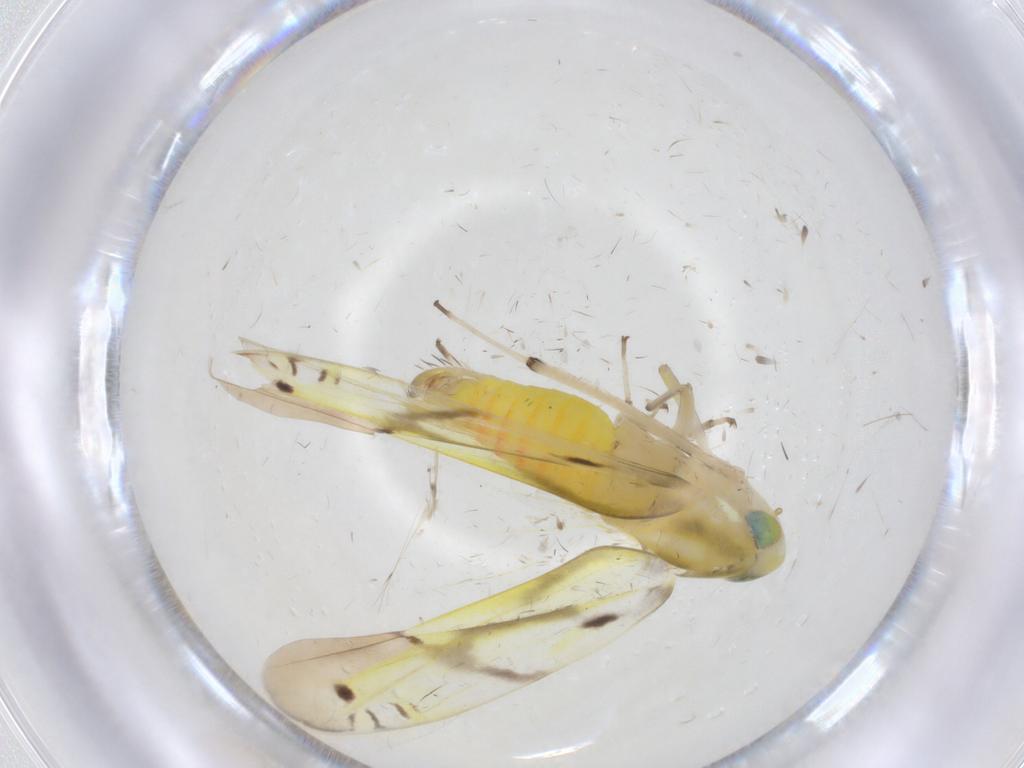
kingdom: Animalia
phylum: Arthropoda
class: Insecta
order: Hemiptera
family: Cicadellidae
